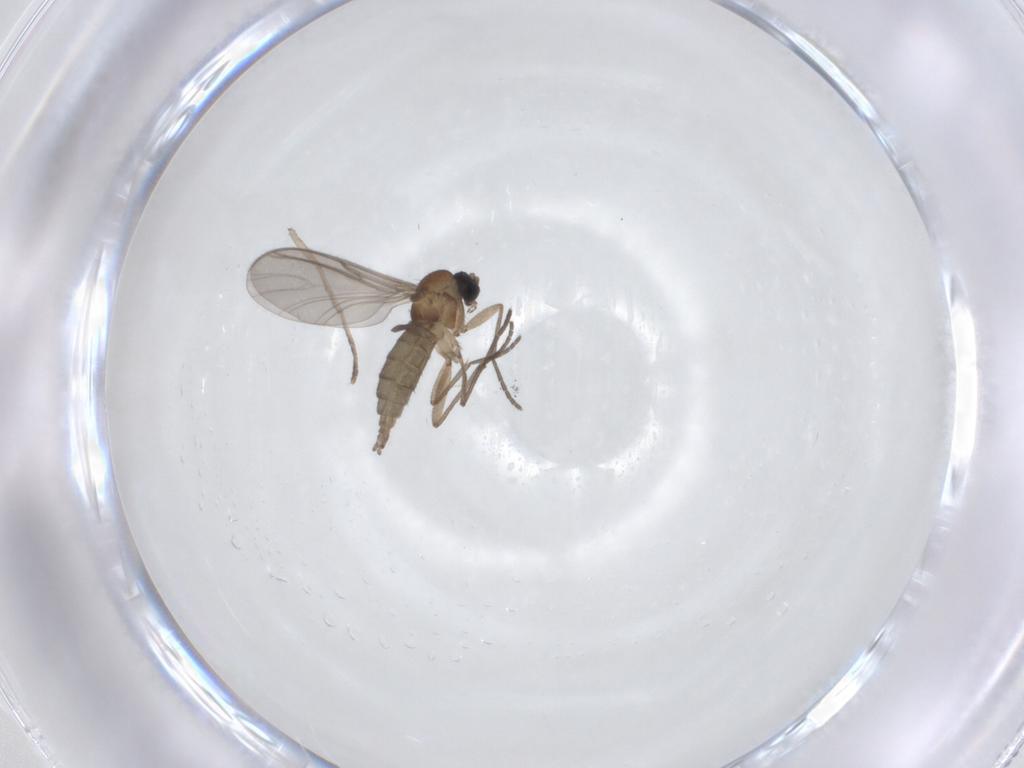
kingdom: Animalia
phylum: Arthropoda
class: Insecta
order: Diptera
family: Sciaridae
